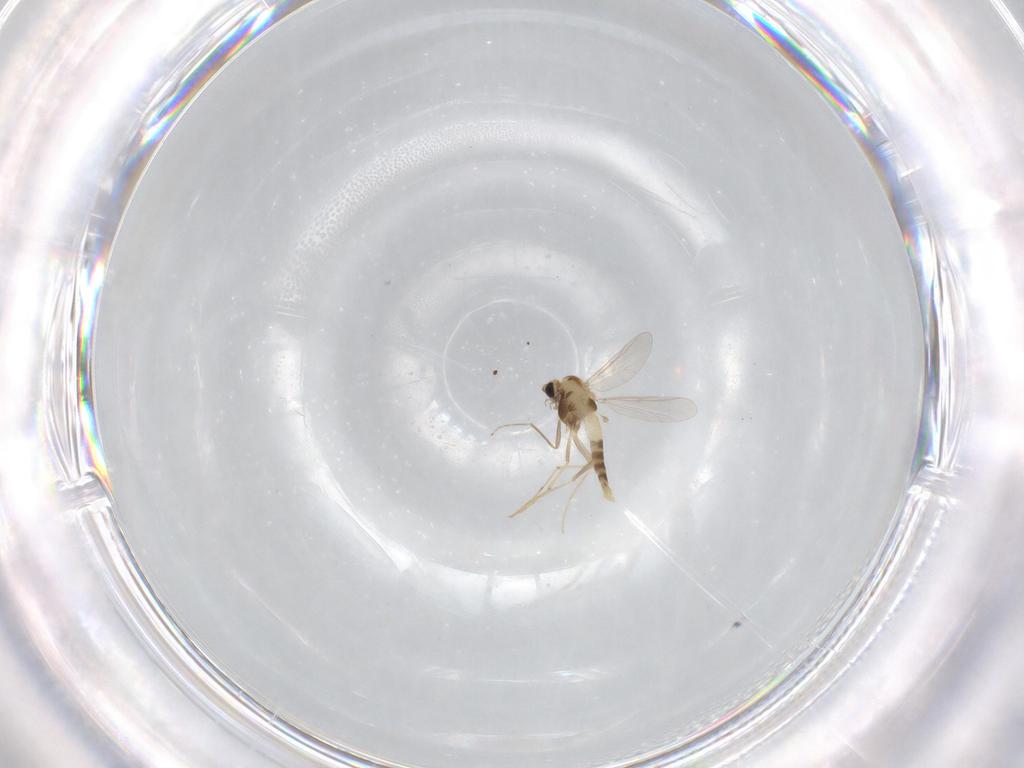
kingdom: Animalia
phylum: Arthropoda
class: Insecta
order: Diptera
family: Chironomidae
